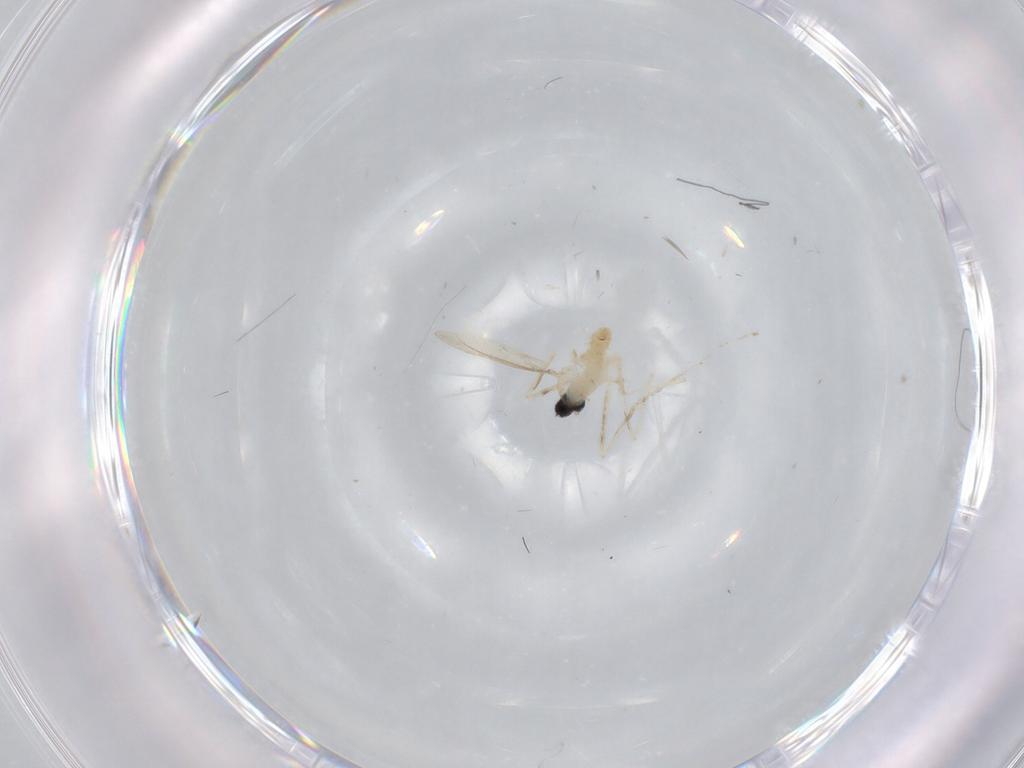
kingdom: Animalia
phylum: Arthropoda
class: Insecta
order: Diptera
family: Cecidomyiidae
